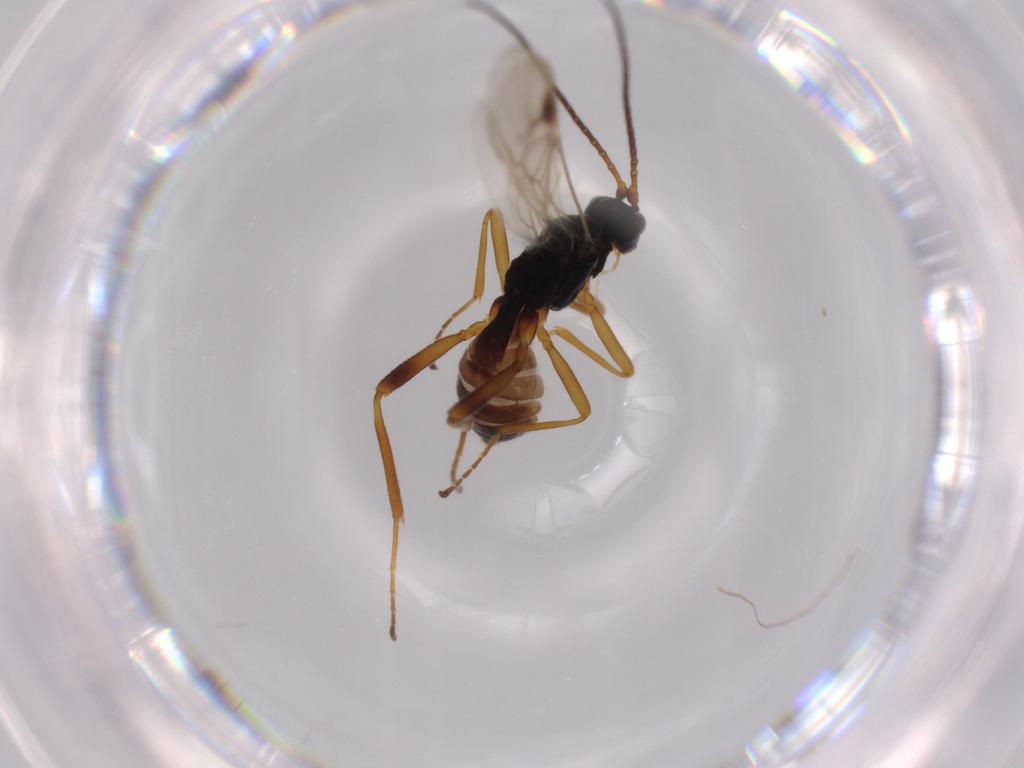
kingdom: Animalia
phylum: Arthropoda
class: Insecta
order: Hymenoptera
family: Braconidae
